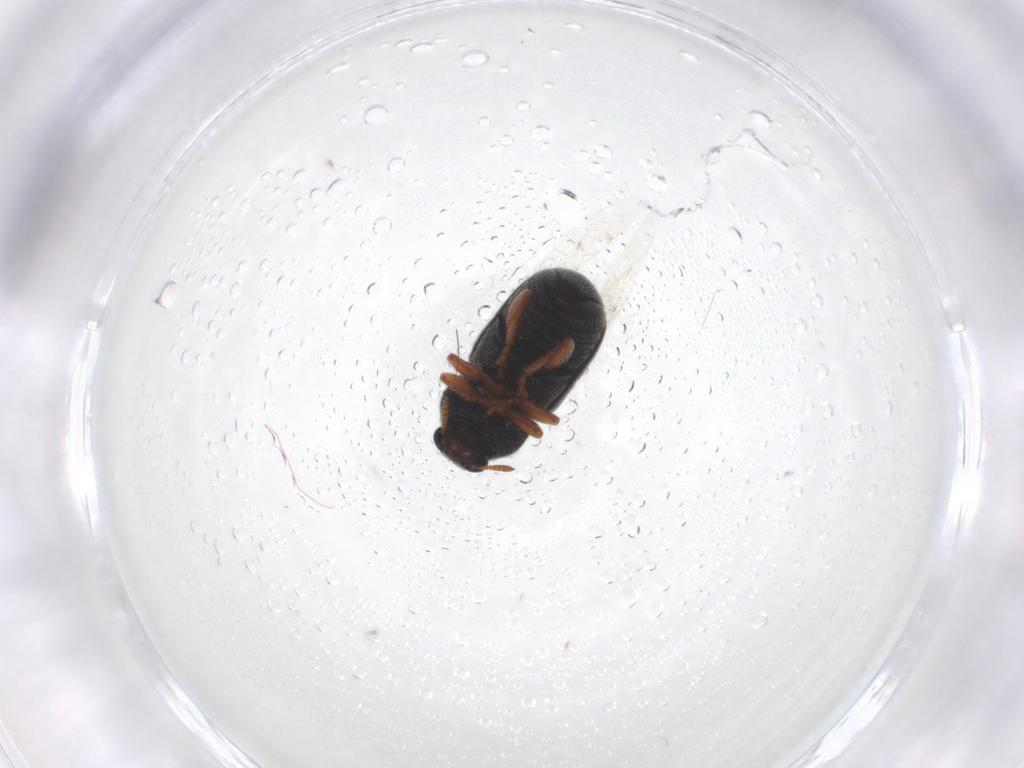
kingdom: Animalia
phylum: Arthropoda
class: Insecta
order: Coleoptera
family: Anthribidae
